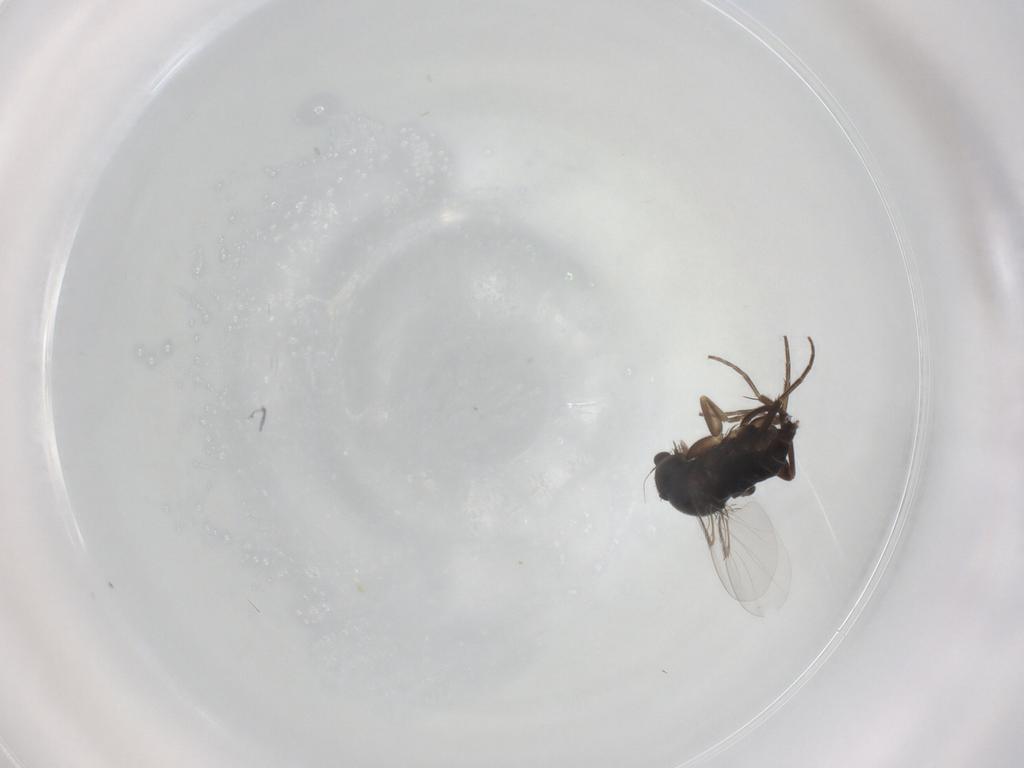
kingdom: Animalia
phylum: Arthropoda
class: Insecta
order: Diptera
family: Phoridae
